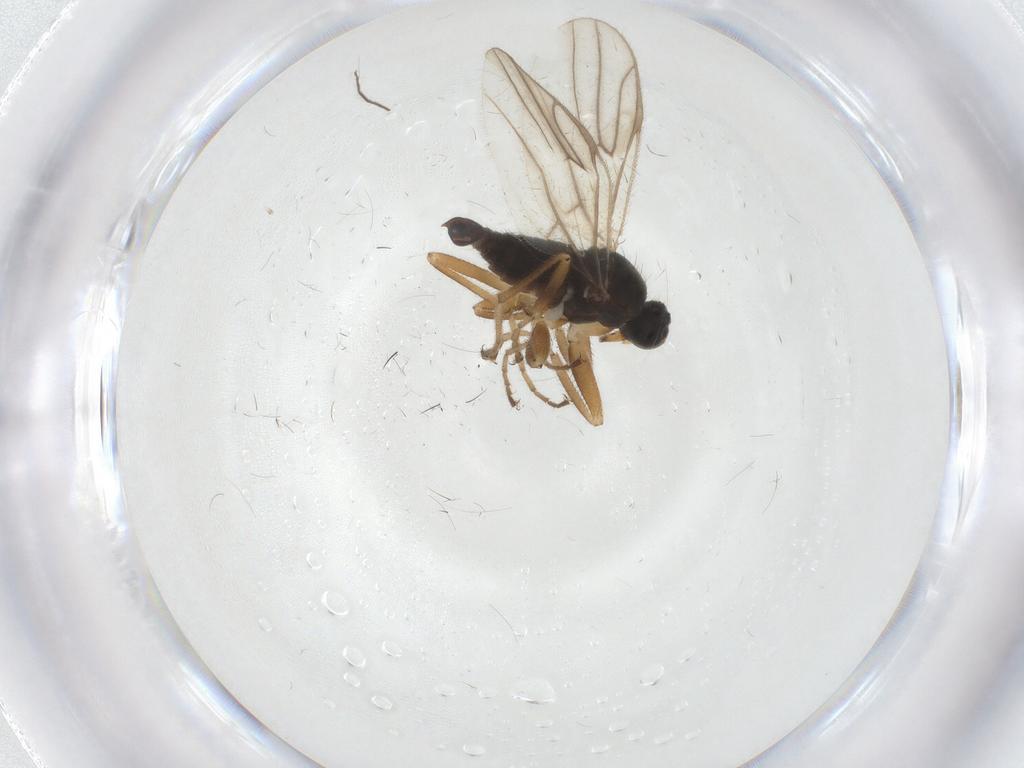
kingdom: Animalia
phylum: Arthropoda
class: Insecta
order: Diptera
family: Hybotidae
